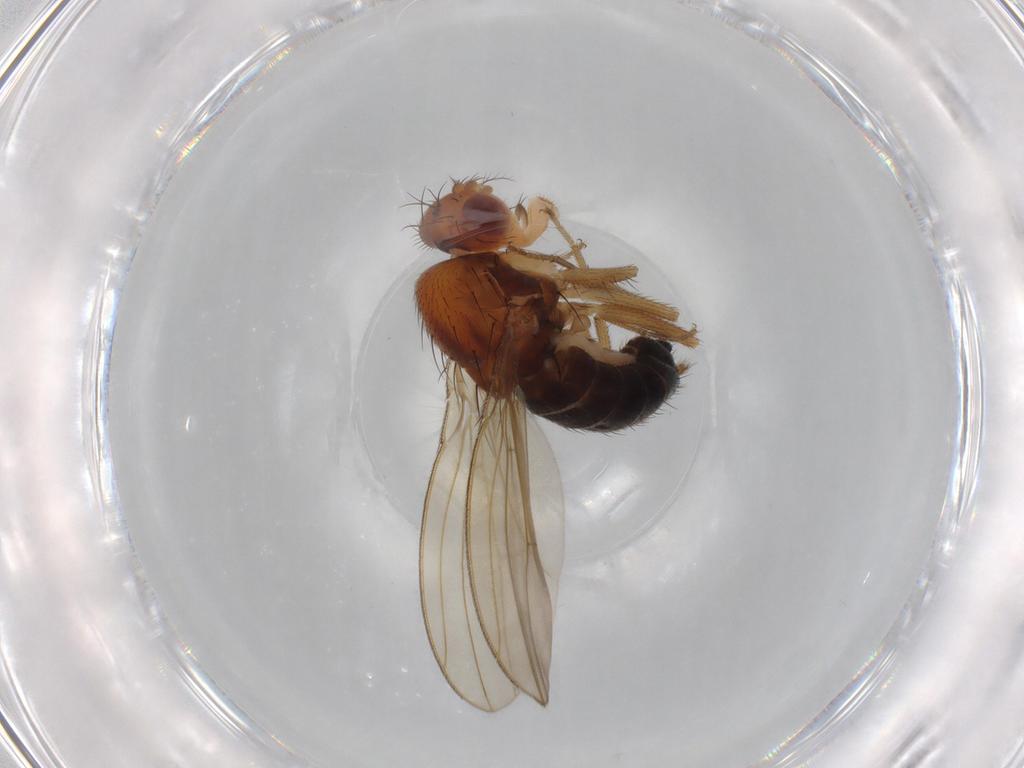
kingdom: Animalia
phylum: Arthropoda
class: Insecta
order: Diptera
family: Drosophilidae
